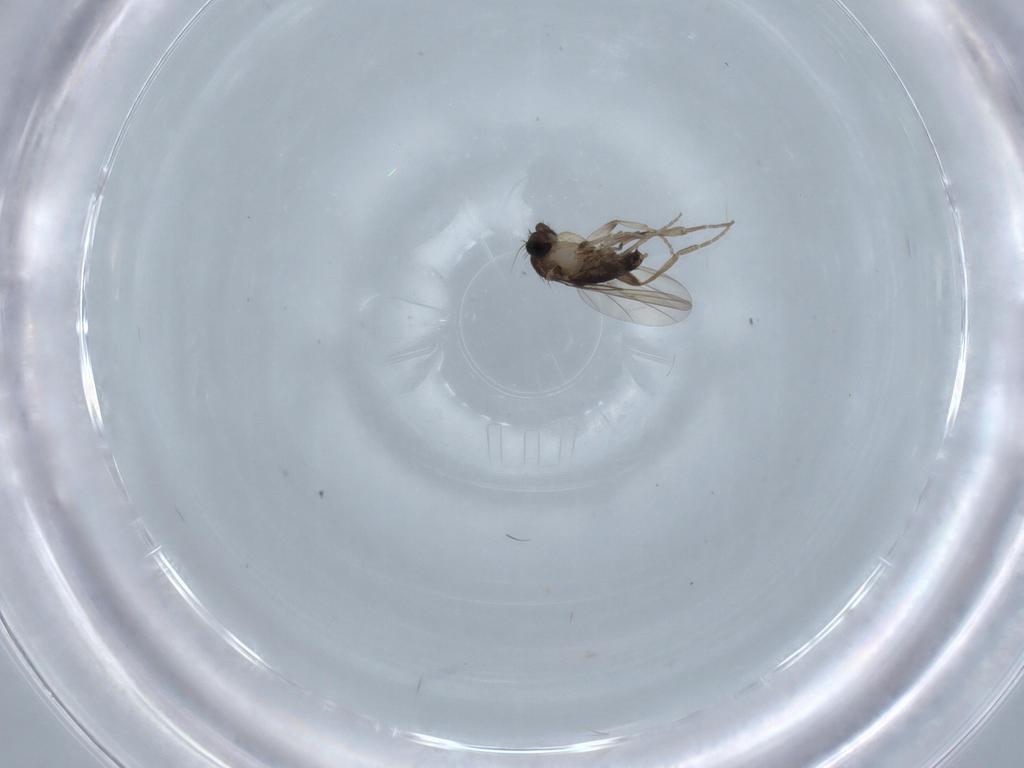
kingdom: Animalia
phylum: Arthropoda
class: Insecta
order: Diptera
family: Phoridae
